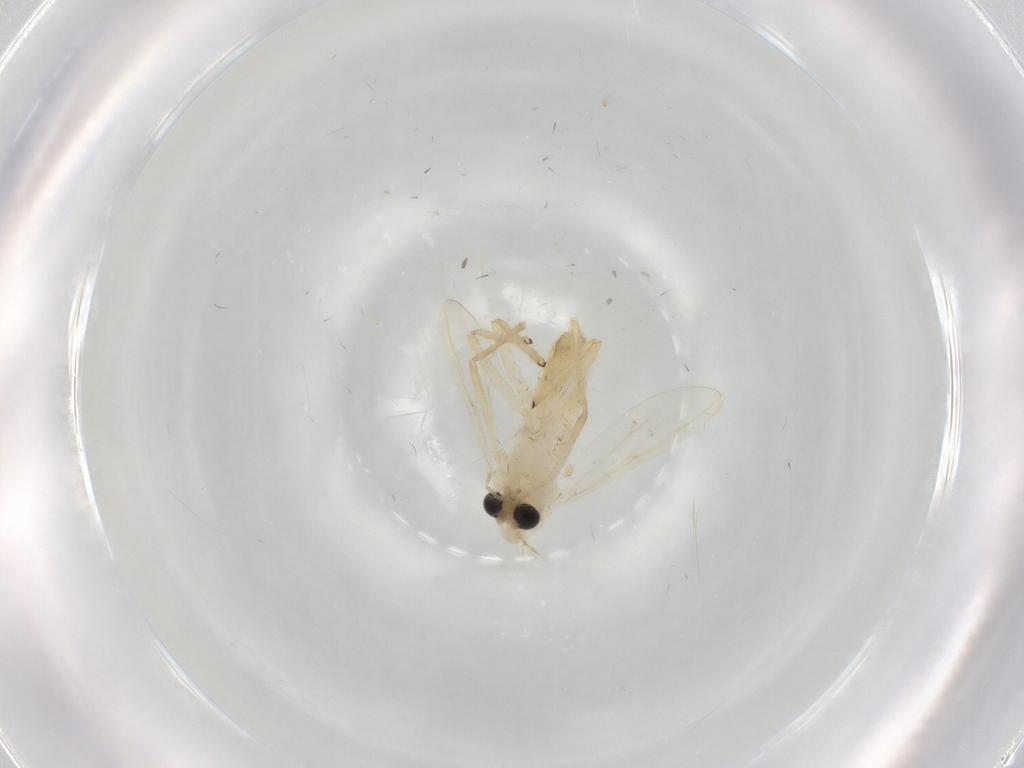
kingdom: Animalia
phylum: Arthropoda
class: Insecta
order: Diptera
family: Chironomidae
